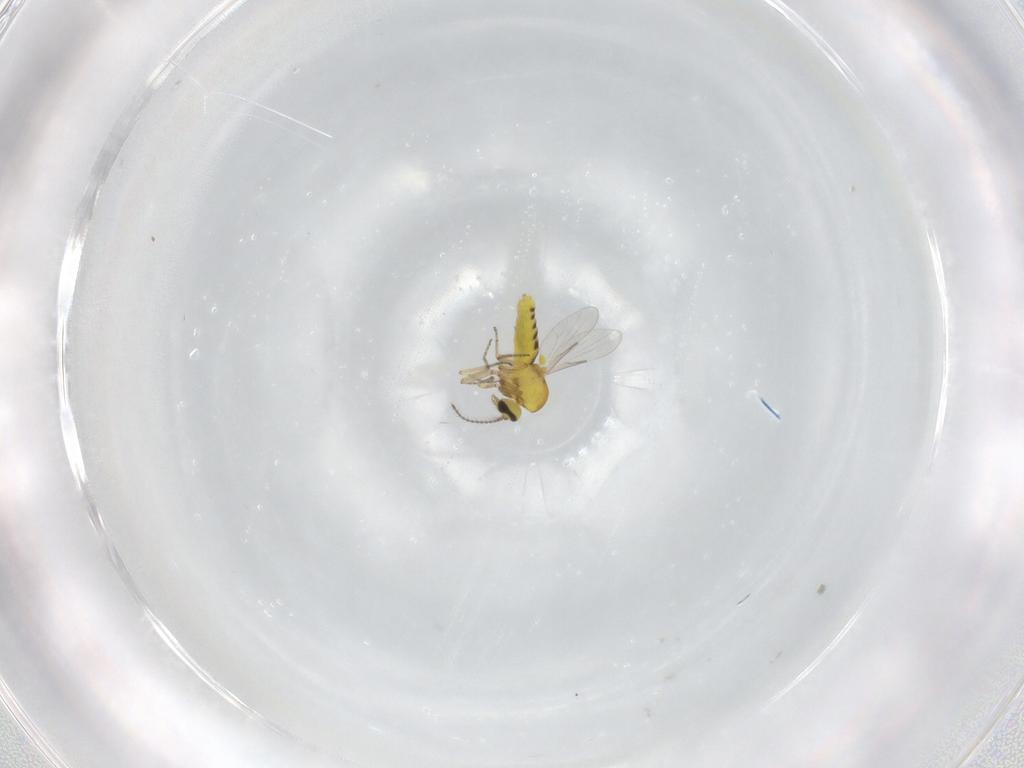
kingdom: Animalia
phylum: Arthropoda
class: Insecta
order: Diptera
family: Ceratopogonidae
